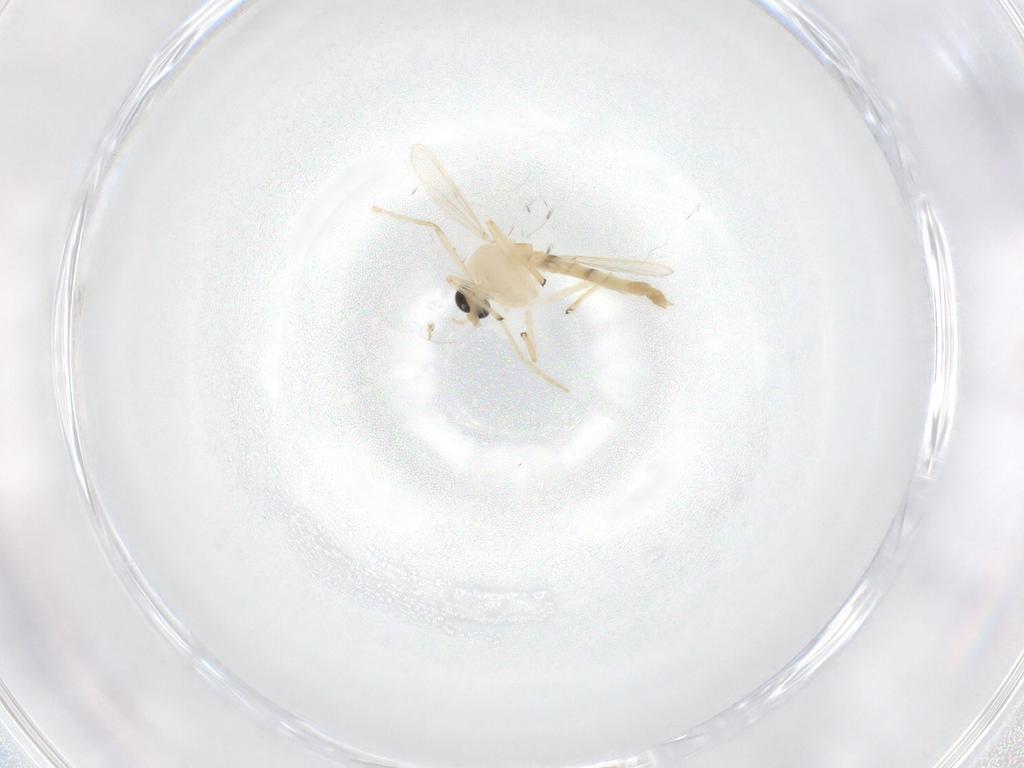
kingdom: Animalia
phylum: Arthropoda
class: Insecta
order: Diptera
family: Chironomidae
